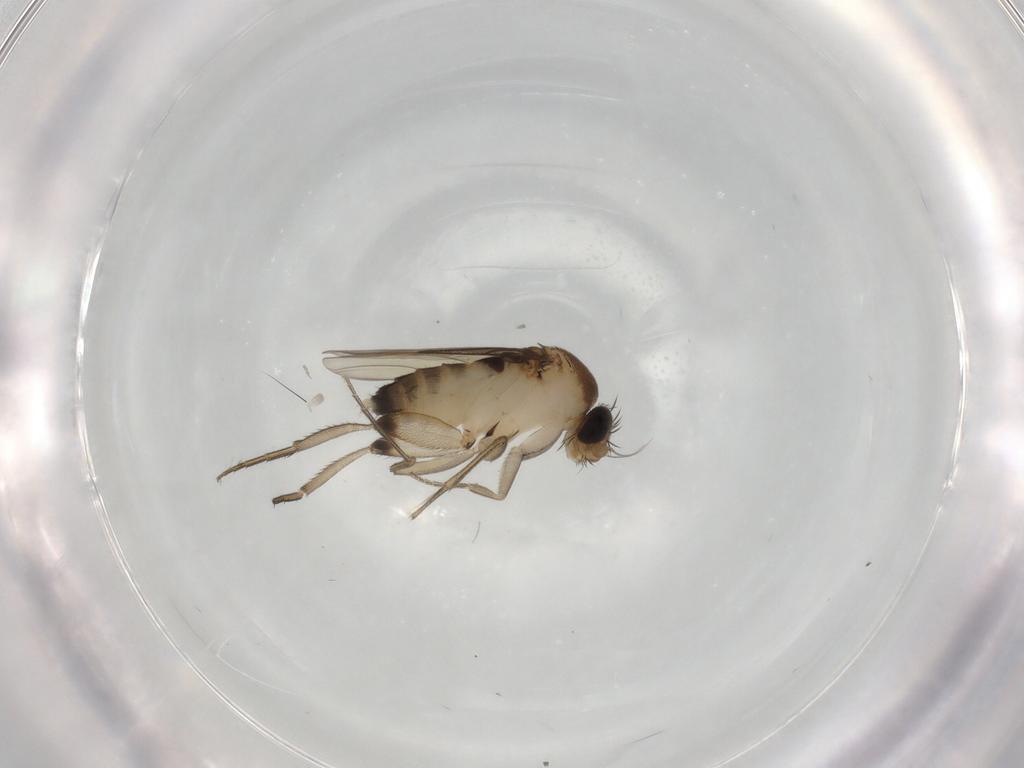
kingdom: Animalia
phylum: Arthropoda
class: Insecta
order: Diptera
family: Phoridae
